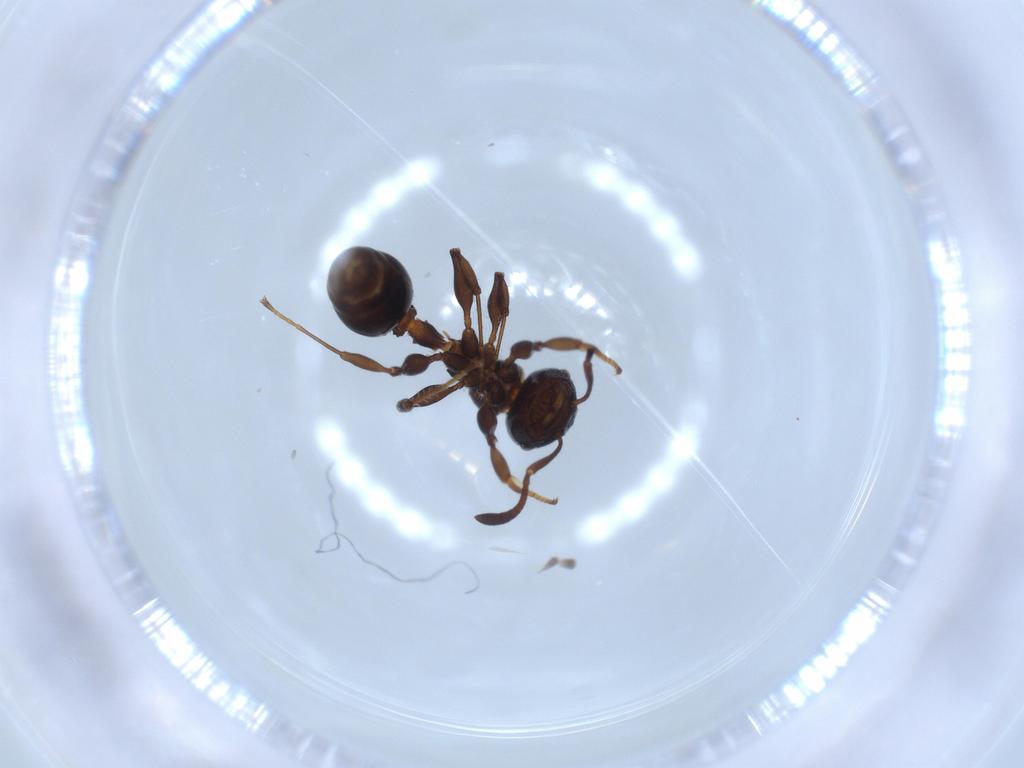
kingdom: Animalia
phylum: Arthropoda
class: Insecta
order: Hymenoptera
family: Formicidae
